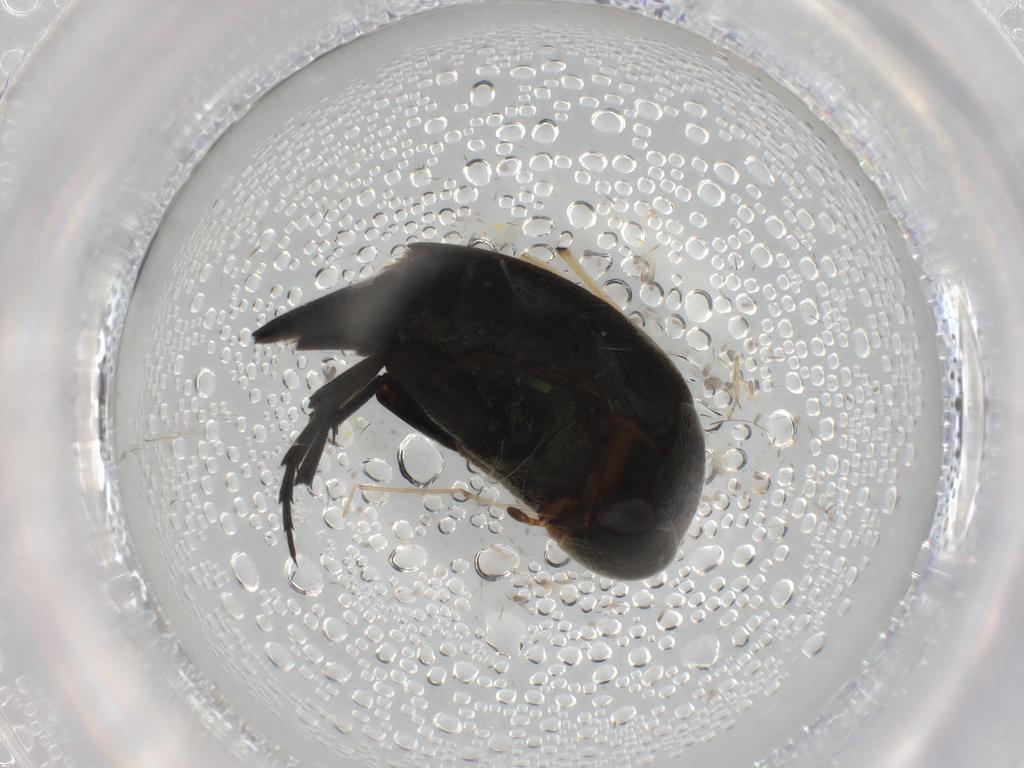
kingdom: Animalia
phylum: Arthropoda
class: Insecta
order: Coleoptera
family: Mordellidae
